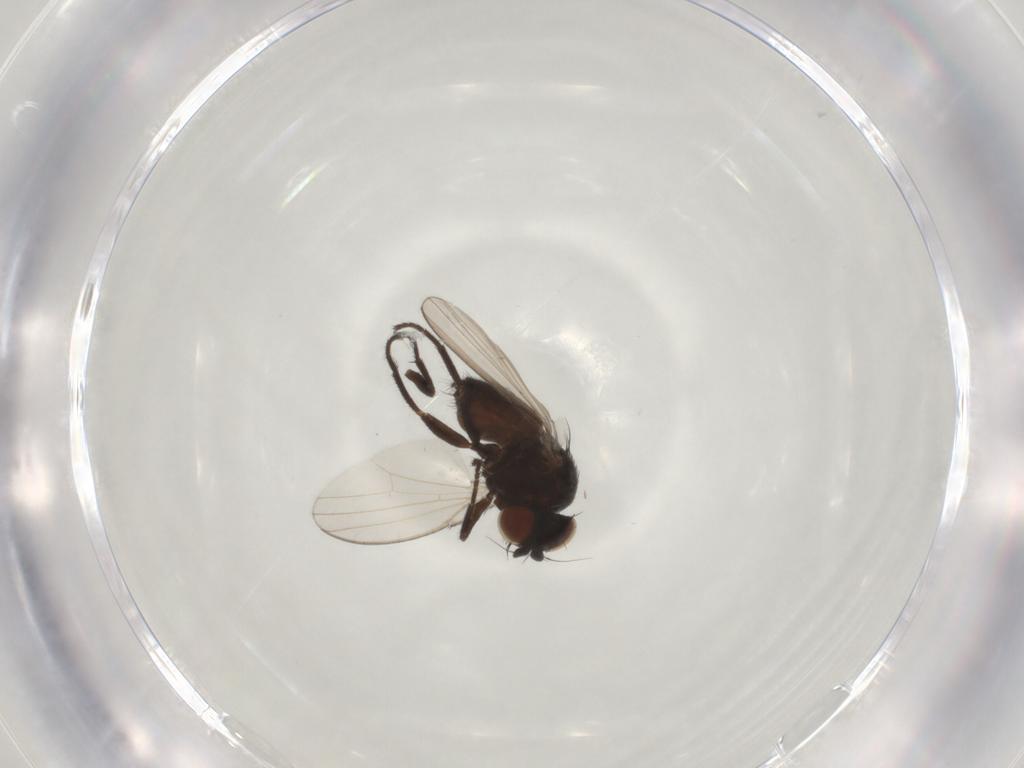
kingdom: Animalia
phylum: Arthropoda
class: Insecta
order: Diptera
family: Milichiidae
